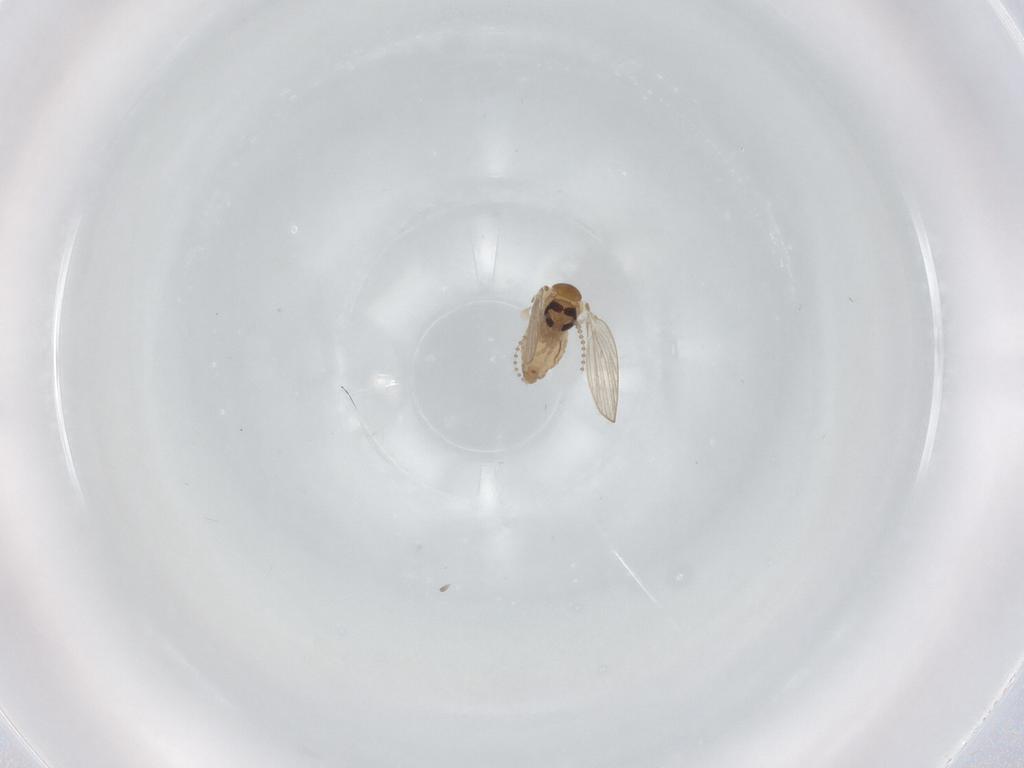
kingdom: Animalia
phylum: Arthropoda
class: Insecta
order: Diptera
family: Psychodidae
